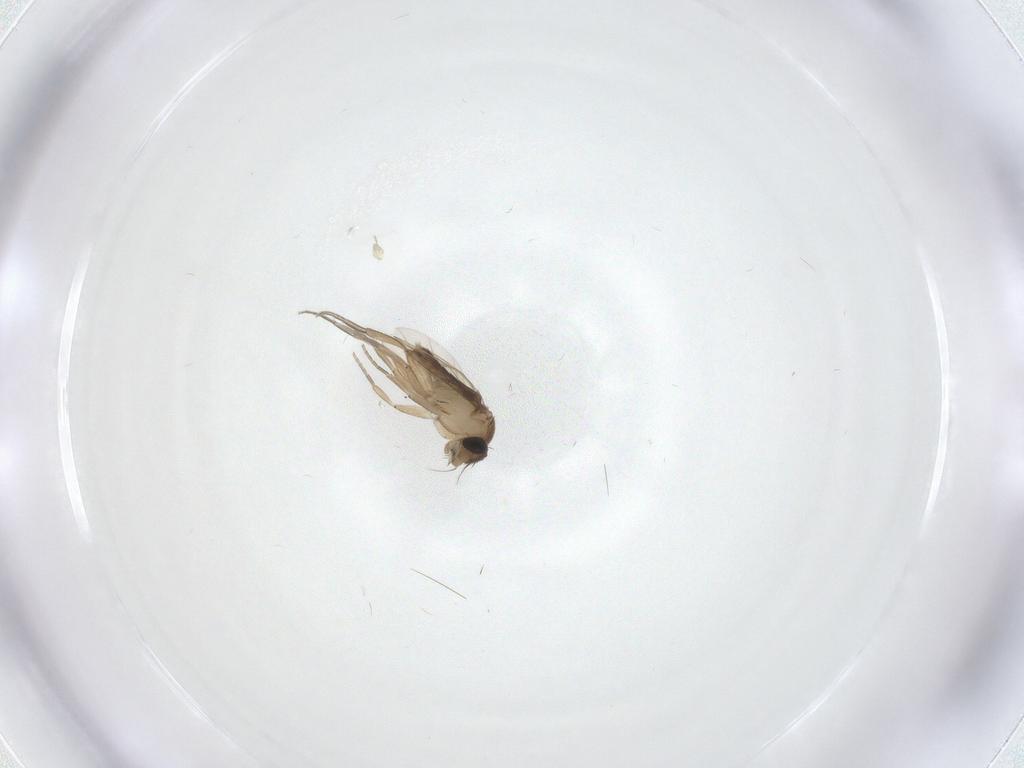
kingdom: Animalia
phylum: Arthropoda
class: Insecta
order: Diptera
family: Phoridae
